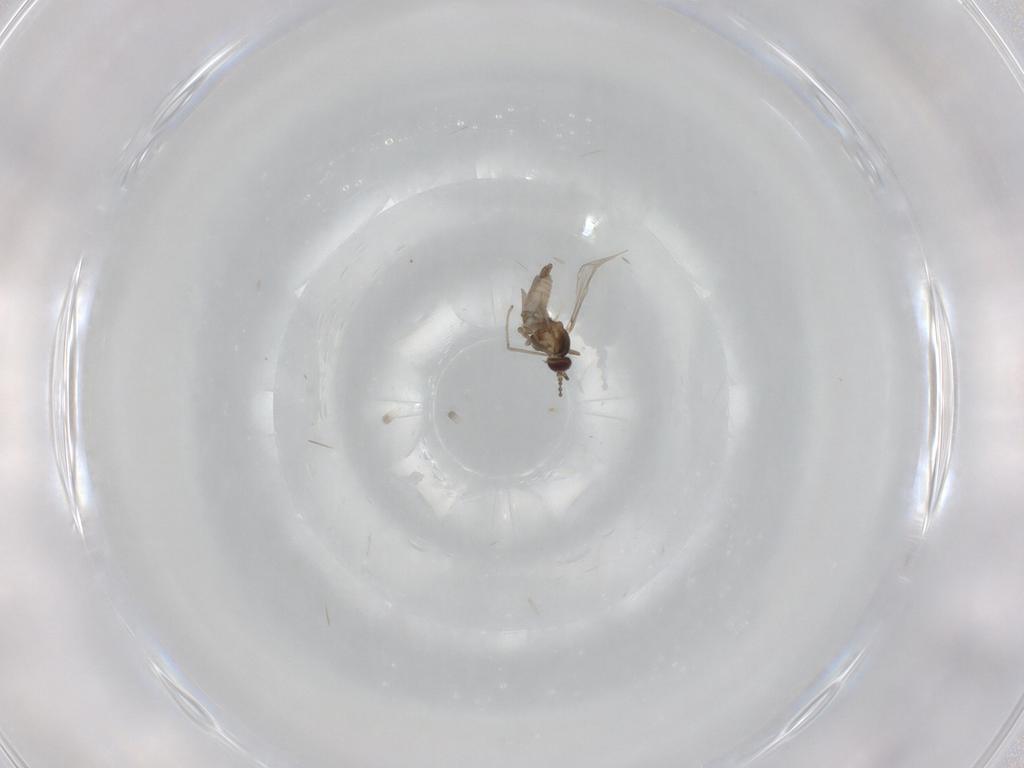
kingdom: Animalia
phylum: Arthropoda
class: Insecta
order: Diptera
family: Cecidomyiidae
